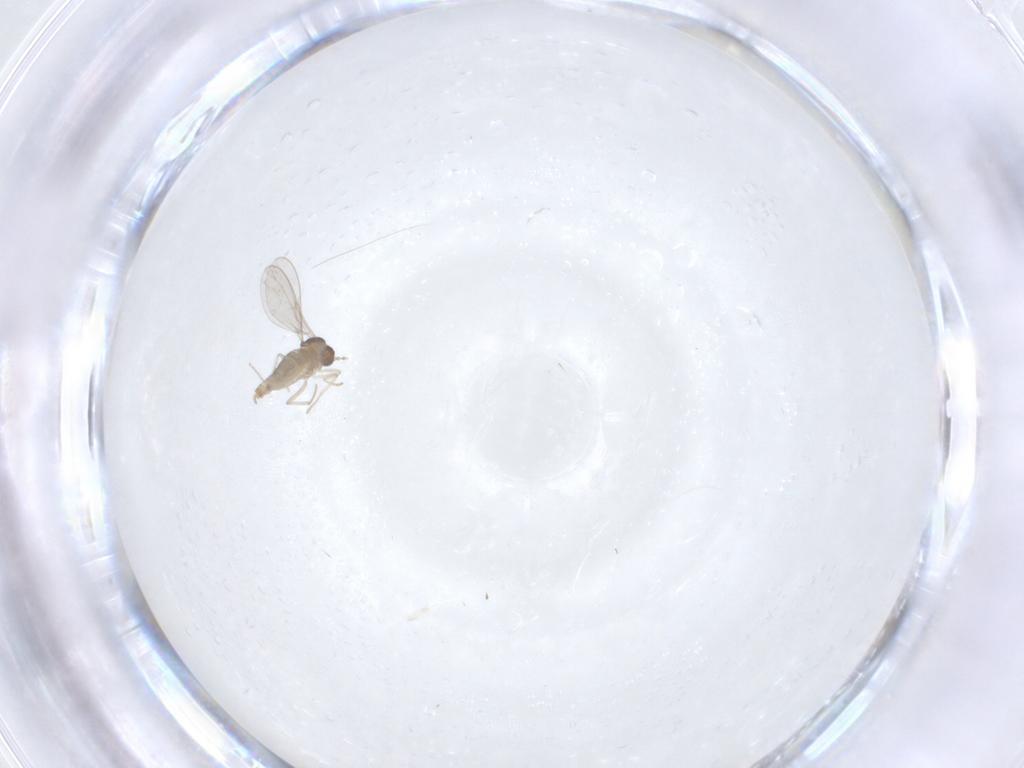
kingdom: Animalia
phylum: Arthropoda
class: Insecta
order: Diptera
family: Cecidomyiidae
